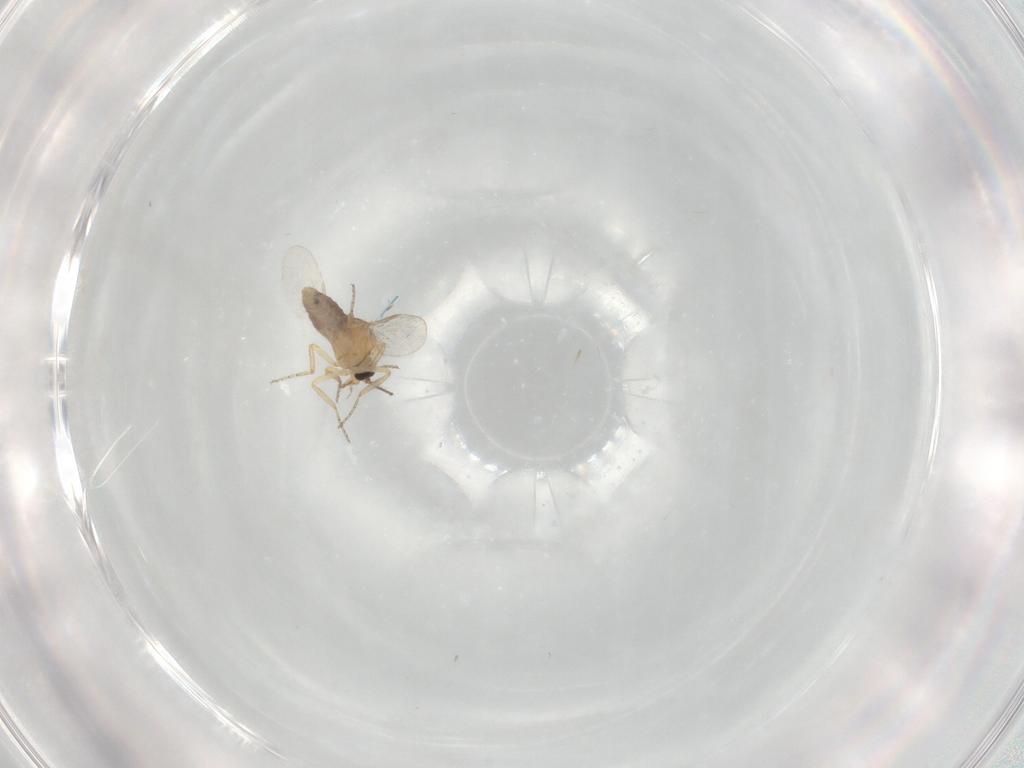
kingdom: Animalia
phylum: Arthropoda
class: Insecta
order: Diptera
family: Ceratopogonidae
